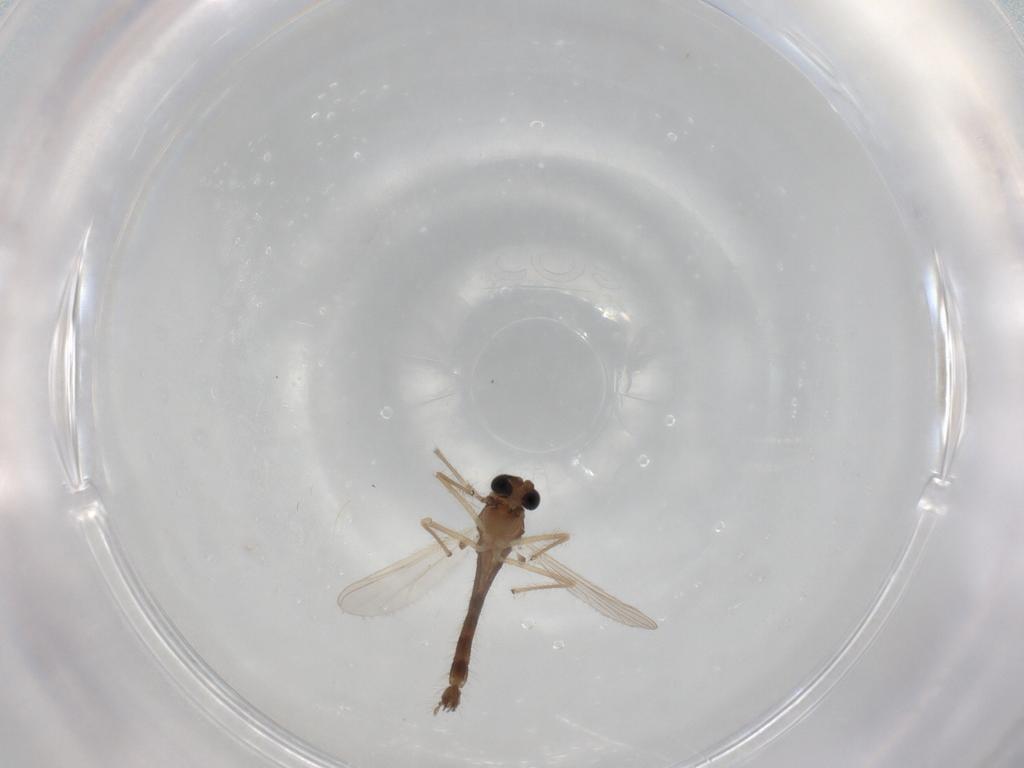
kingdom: Animalia
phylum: Arthropoda
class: Insecta
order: Diptera
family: Chironomidae
